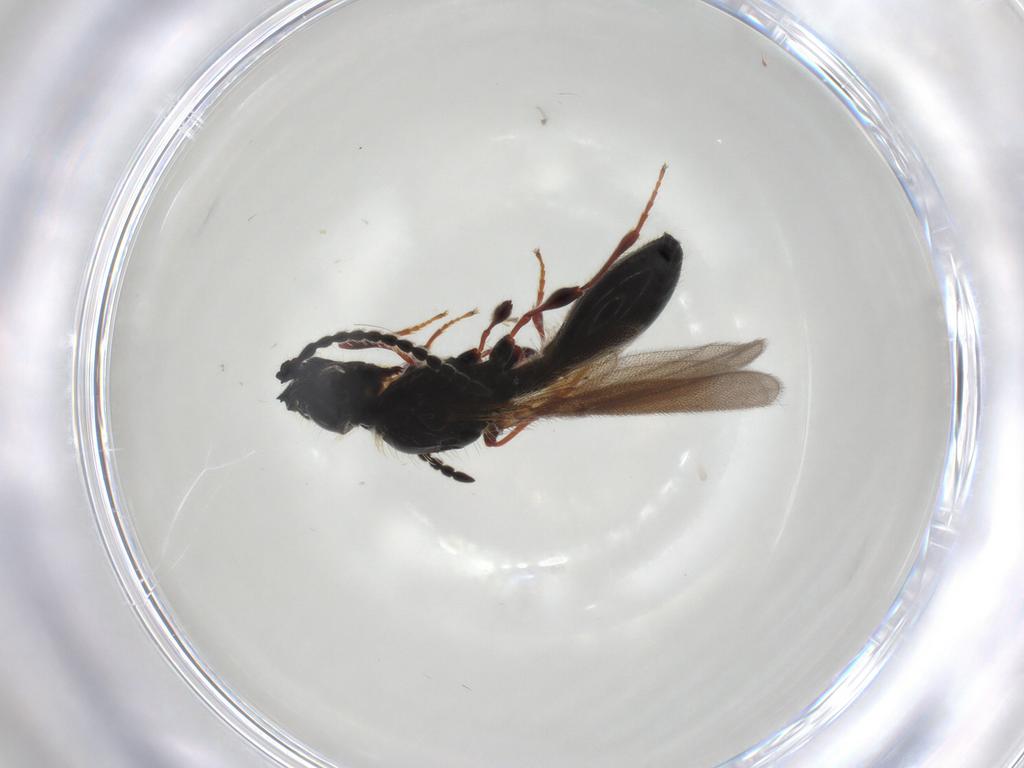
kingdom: Animalia
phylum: Arthropoda
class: Insecta
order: Hymenoptera
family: Diapriidae
